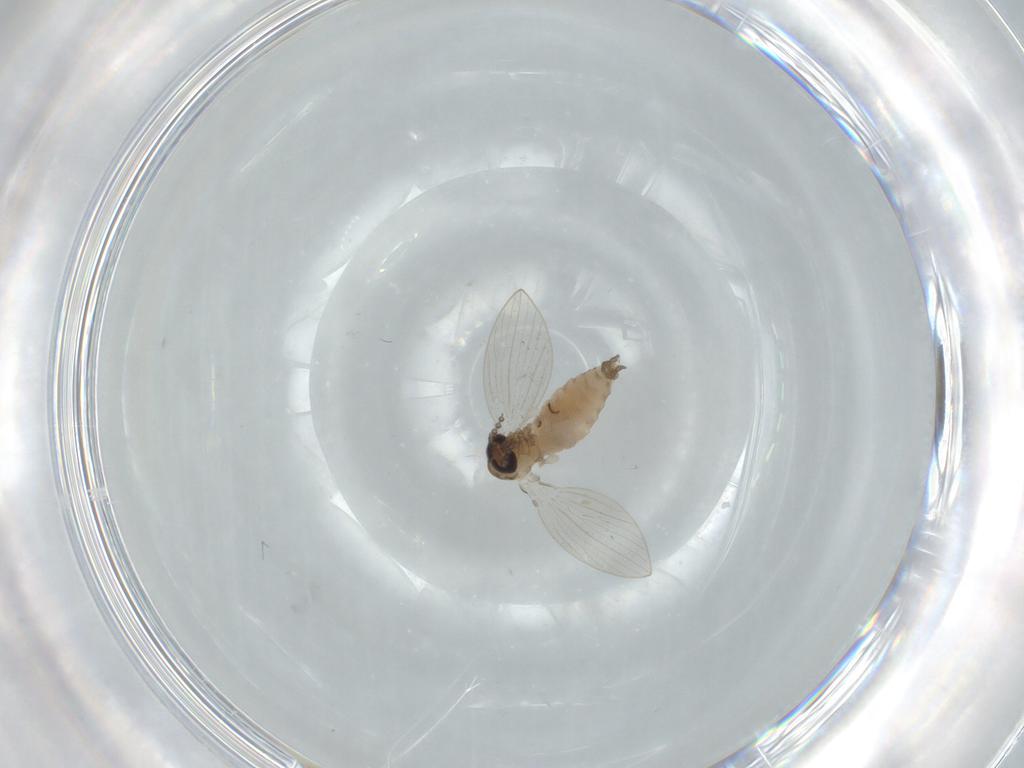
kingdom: Animalia
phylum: Arthropoda
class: Insecta
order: Diptera
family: Psychodidae
